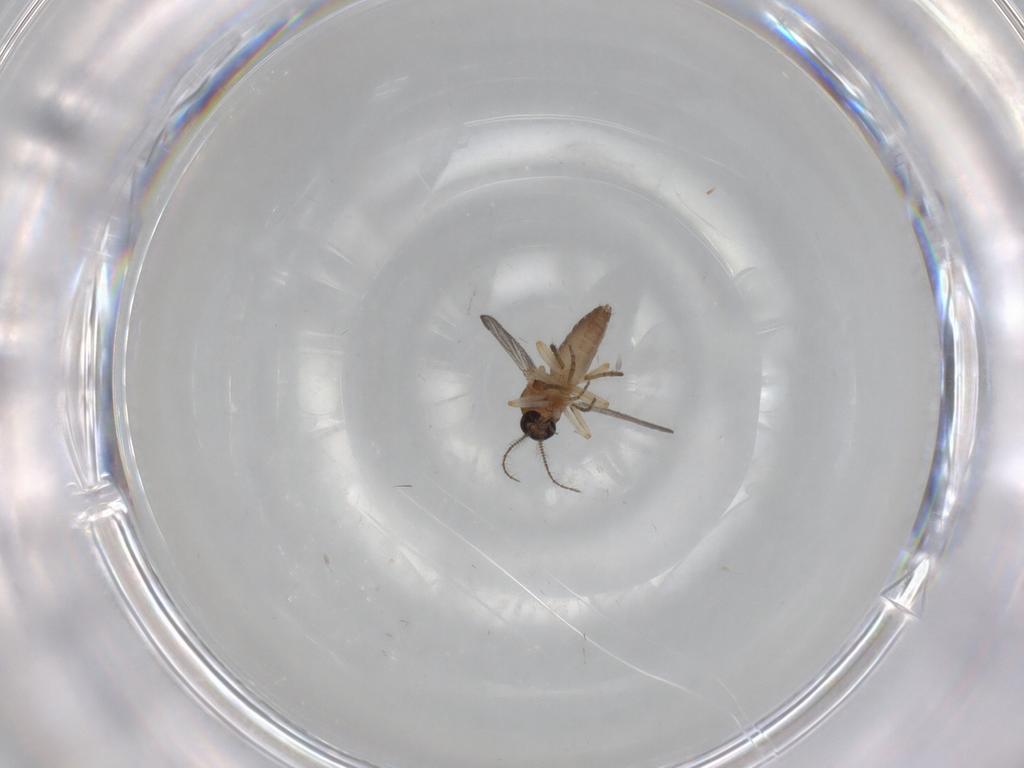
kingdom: Animalia
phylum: Arthropoda
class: Insecta
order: Diptera
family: Ceratopogonidae
